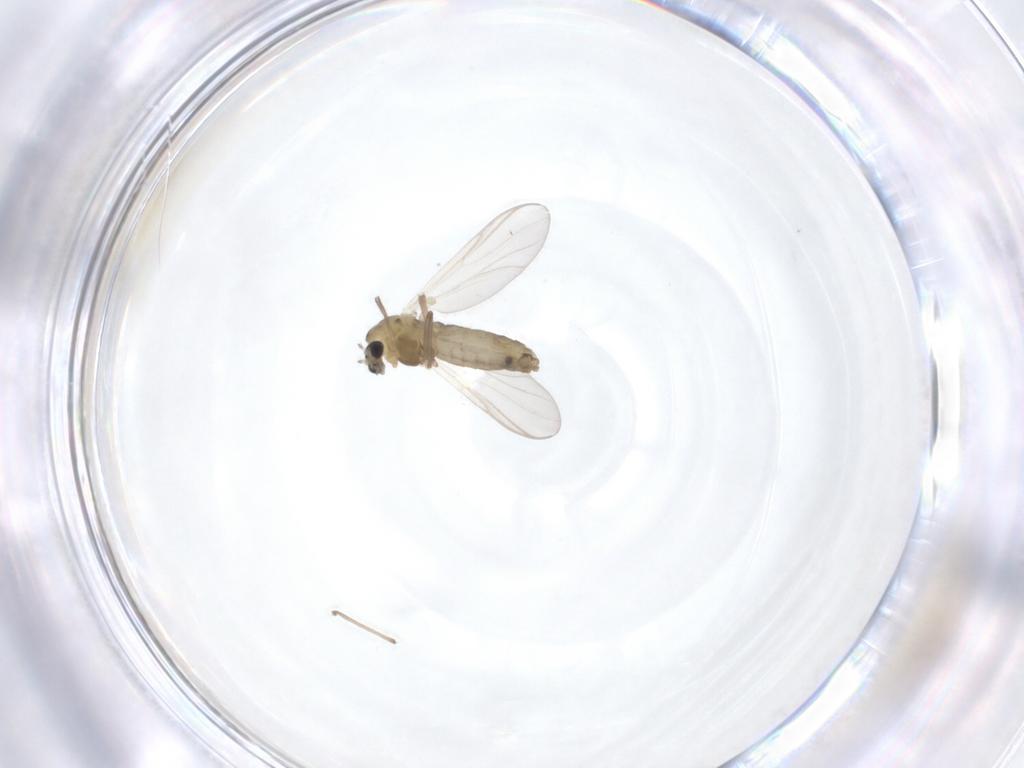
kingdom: Animalia
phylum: Arthropoda
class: Insecta
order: Diptera
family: Chironomidae
